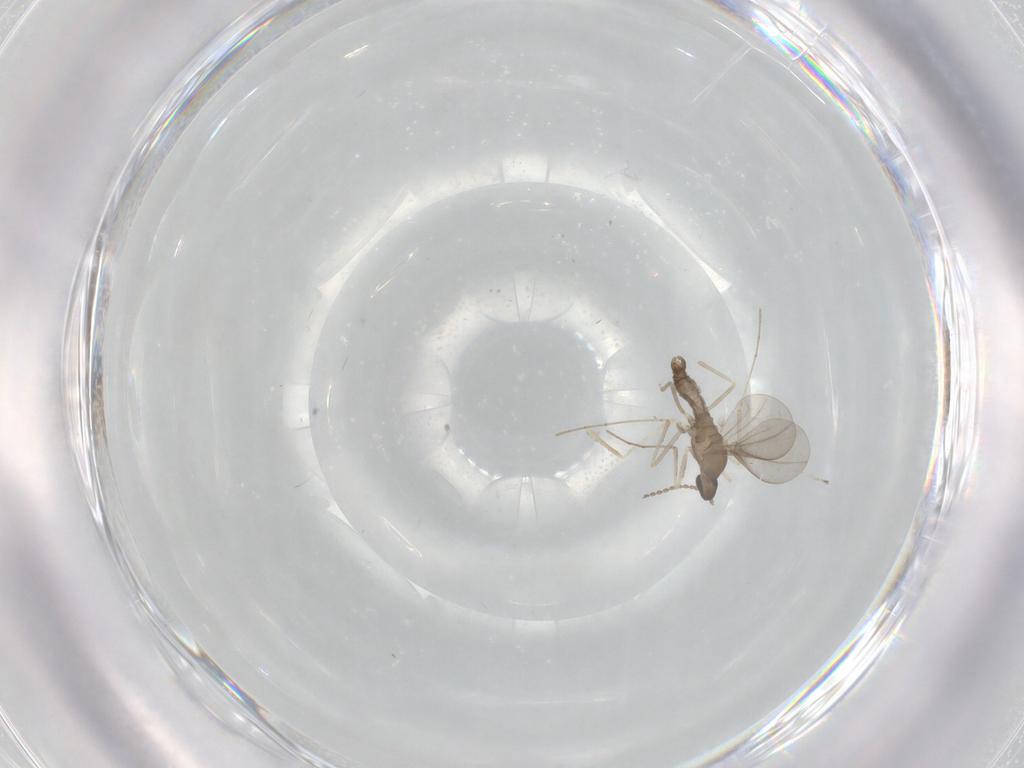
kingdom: Animalia
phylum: Arthropoda
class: Insecta
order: Diptera
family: Cecidomyiidae
